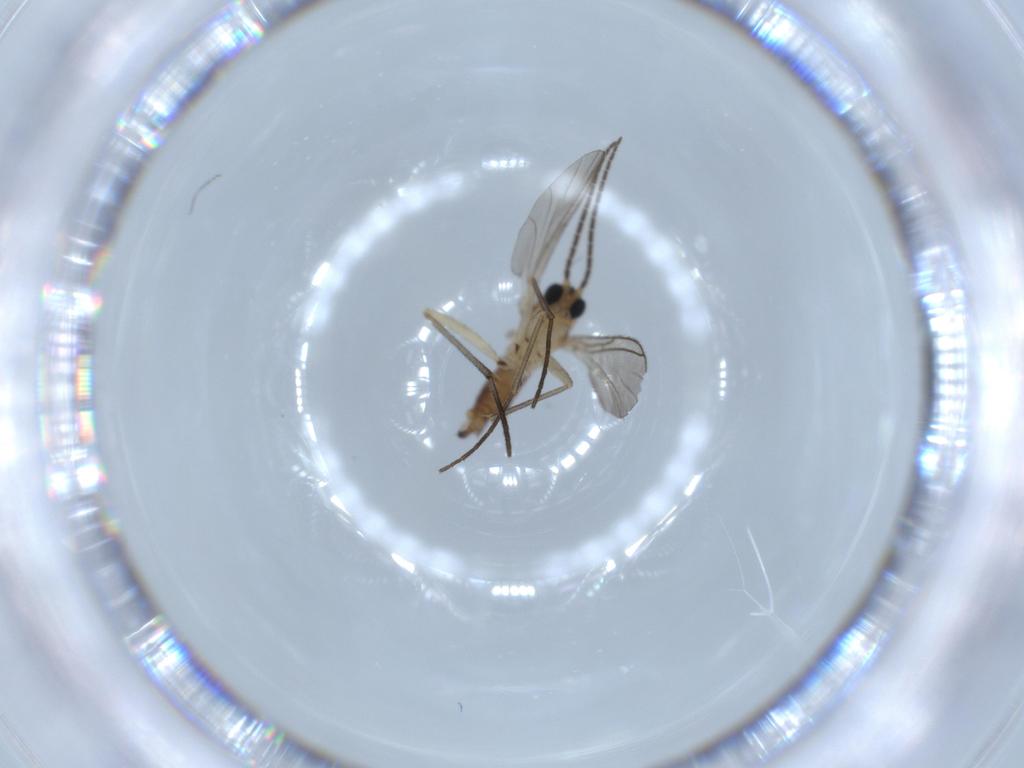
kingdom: Animalia
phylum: Arthropoda
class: Insecta
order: Diptera
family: Sciaridae
